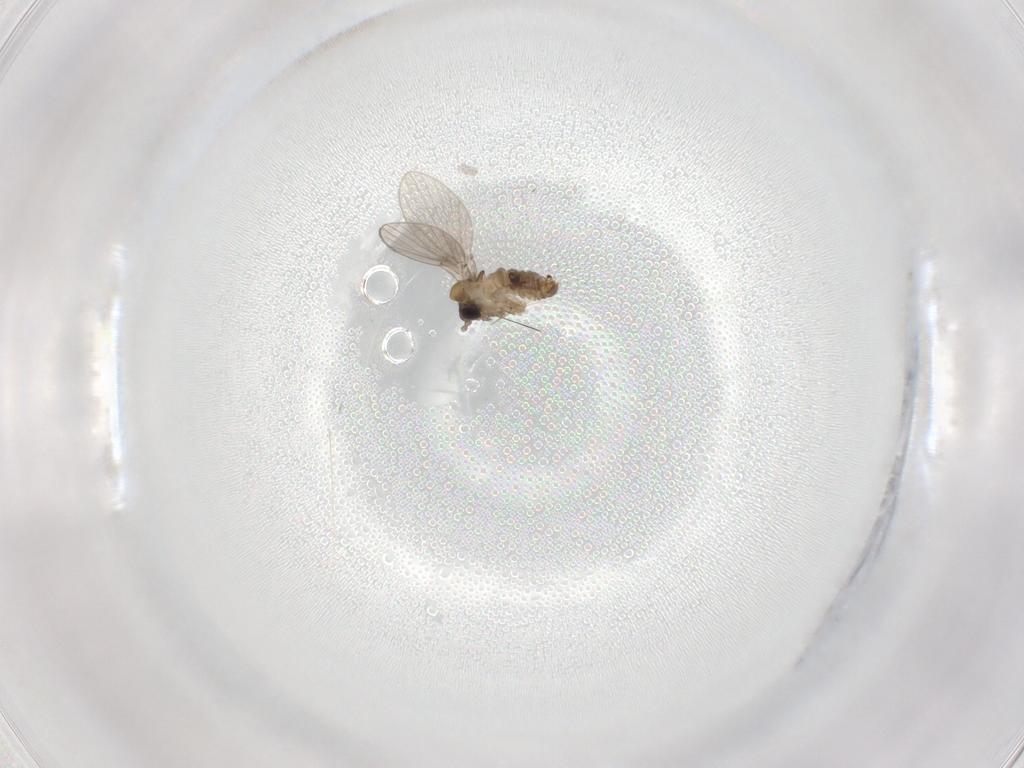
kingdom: Animalia
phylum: Arthropoda
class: Insecta
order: Diptera
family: Psychodidae
